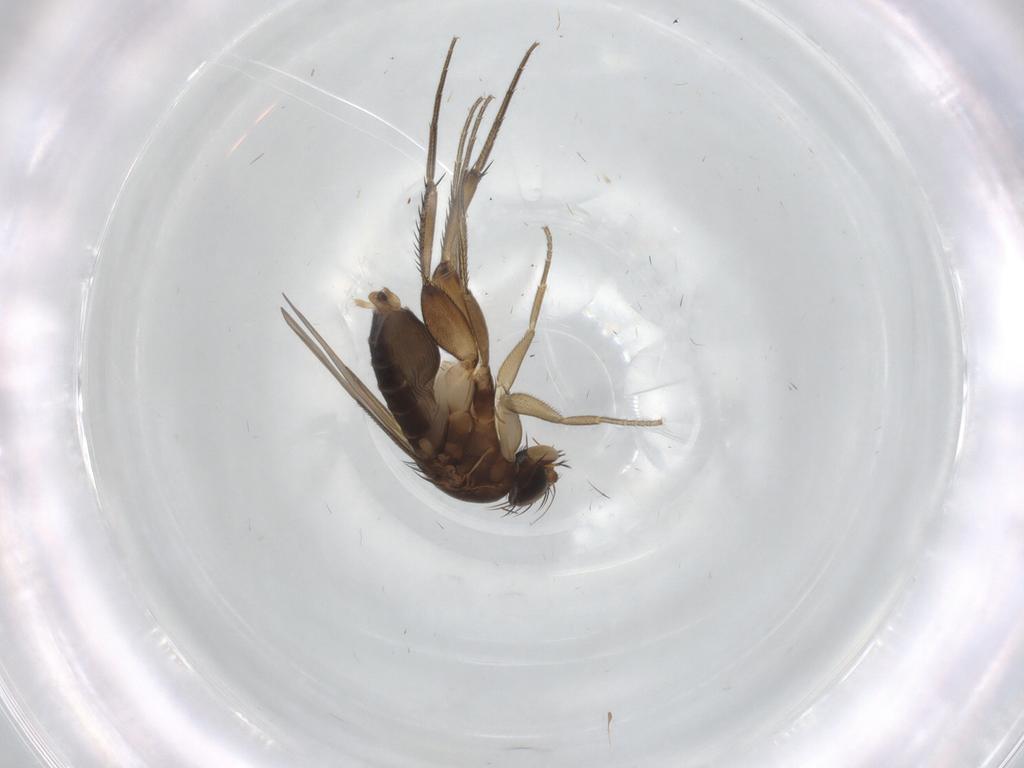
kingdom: Animalia
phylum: Arthropoda
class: Insecta
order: Diptera
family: Phoridae
